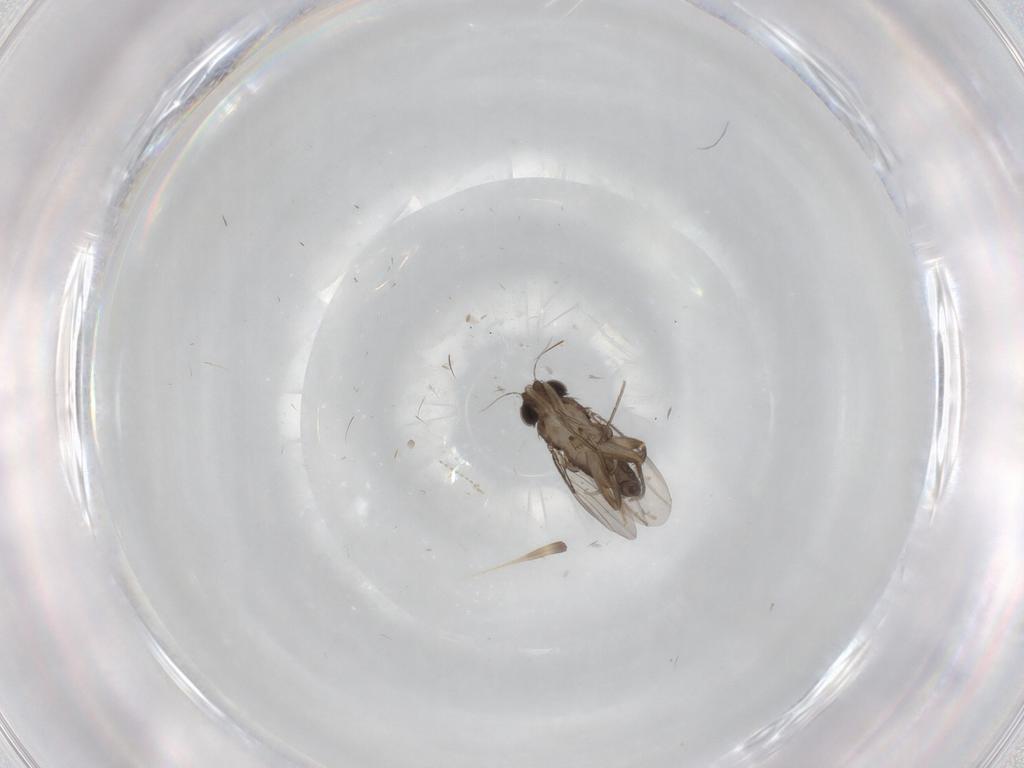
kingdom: Animalia
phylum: Arthropoda
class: Insecta
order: Diptera
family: Phoridae
